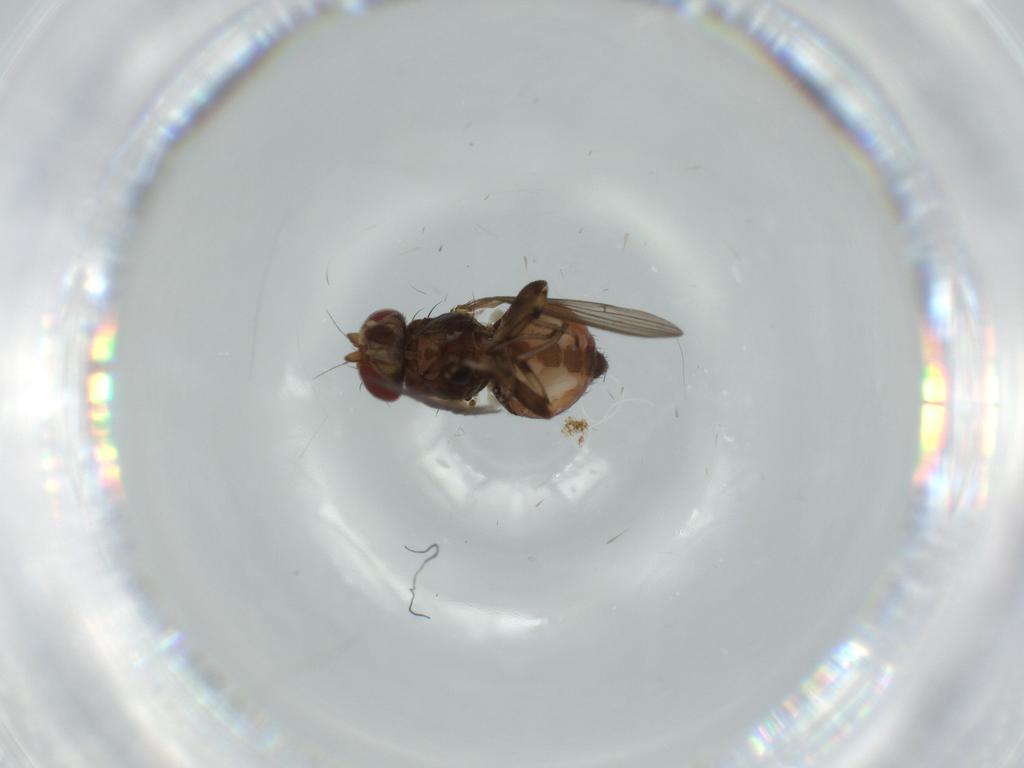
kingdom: Animalia
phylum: Arthropoda
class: Insecta
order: Diptera
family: Heleomyzidae
